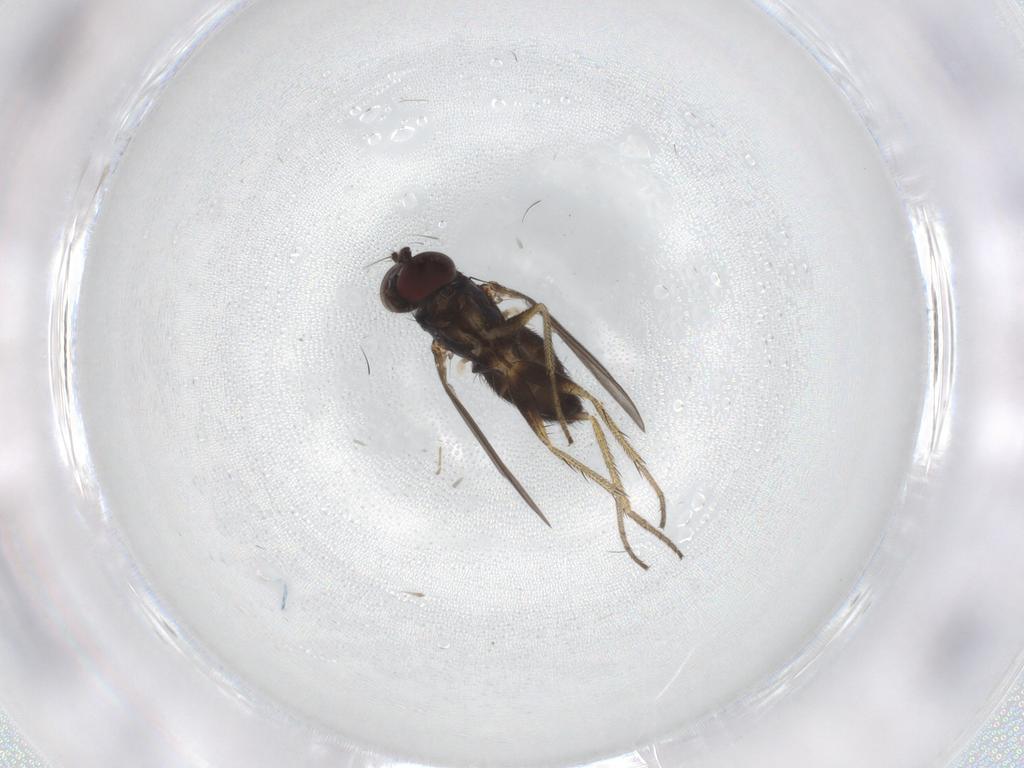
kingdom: Animalia
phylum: Arthropoda
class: Insecta
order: Diptera
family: Dolichopodidae
